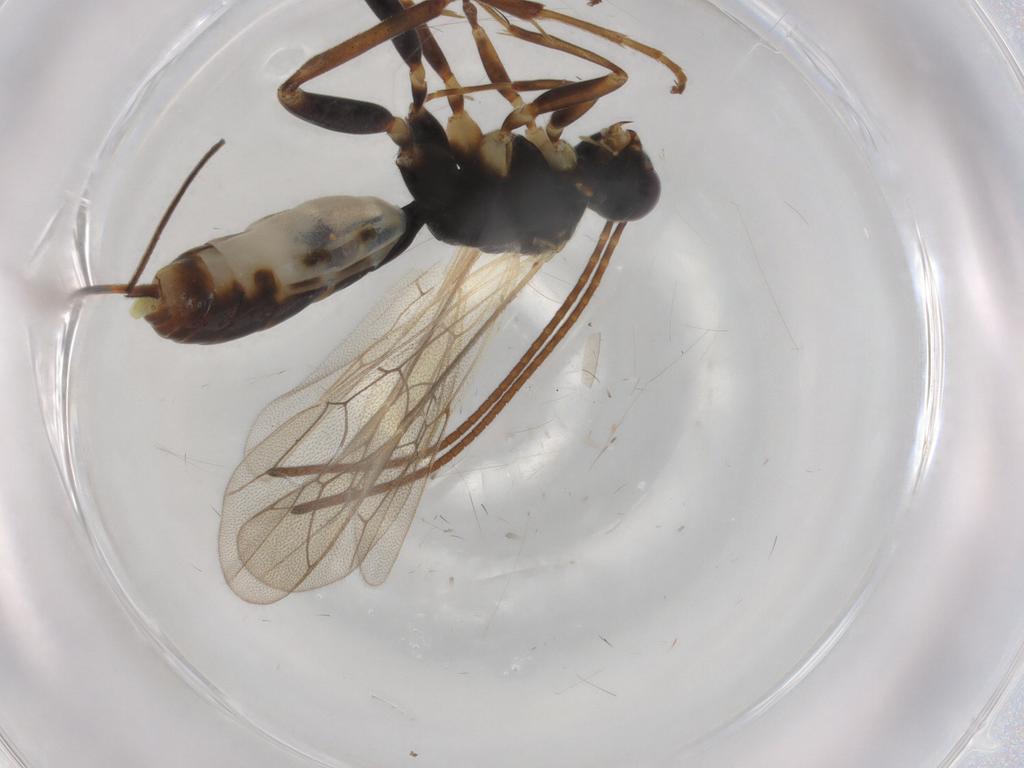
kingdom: Animalia
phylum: Arthropoda
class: Insecta
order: Hymenoptera
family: Ichneumonidae
